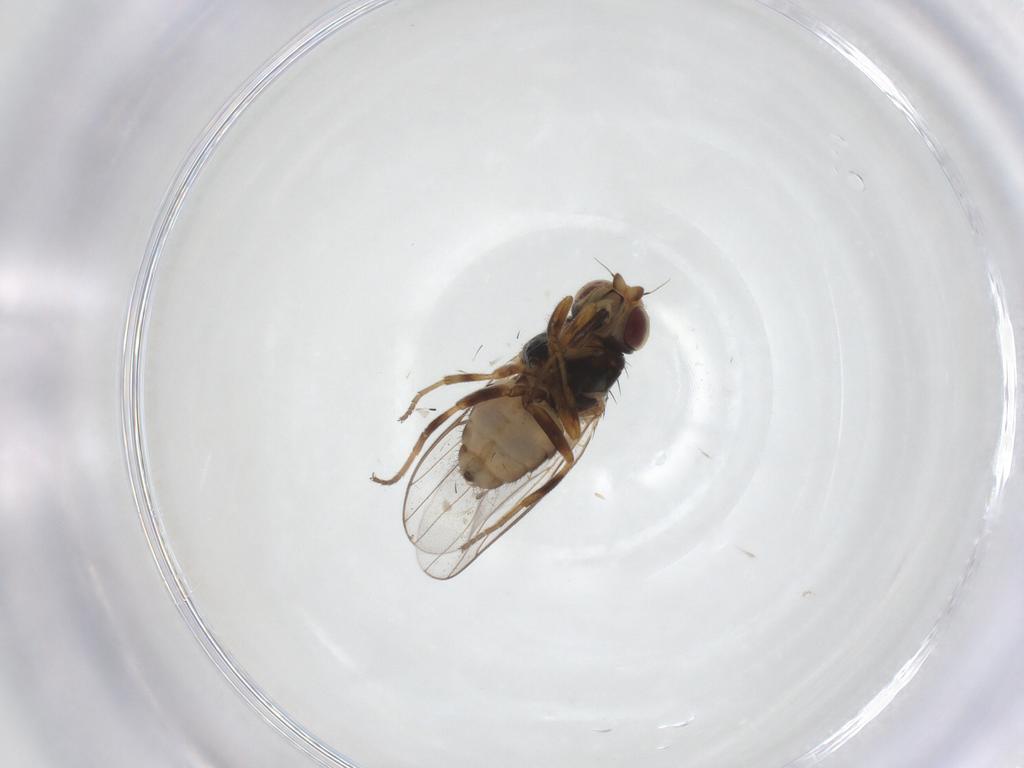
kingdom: Animalia
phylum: Arthropoda
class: Insecta
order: Diptera
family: Chloropidae
